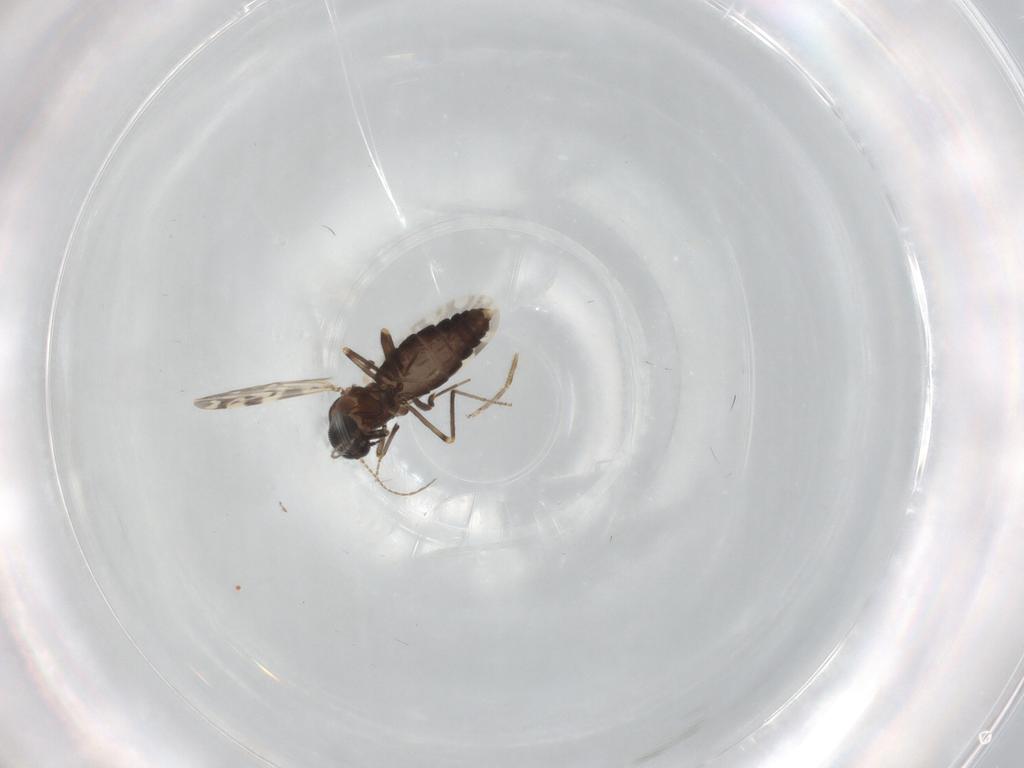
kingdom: Animalia
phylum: Arthropoda
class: Insecta
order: Diptera
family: Ceratopogonidae
